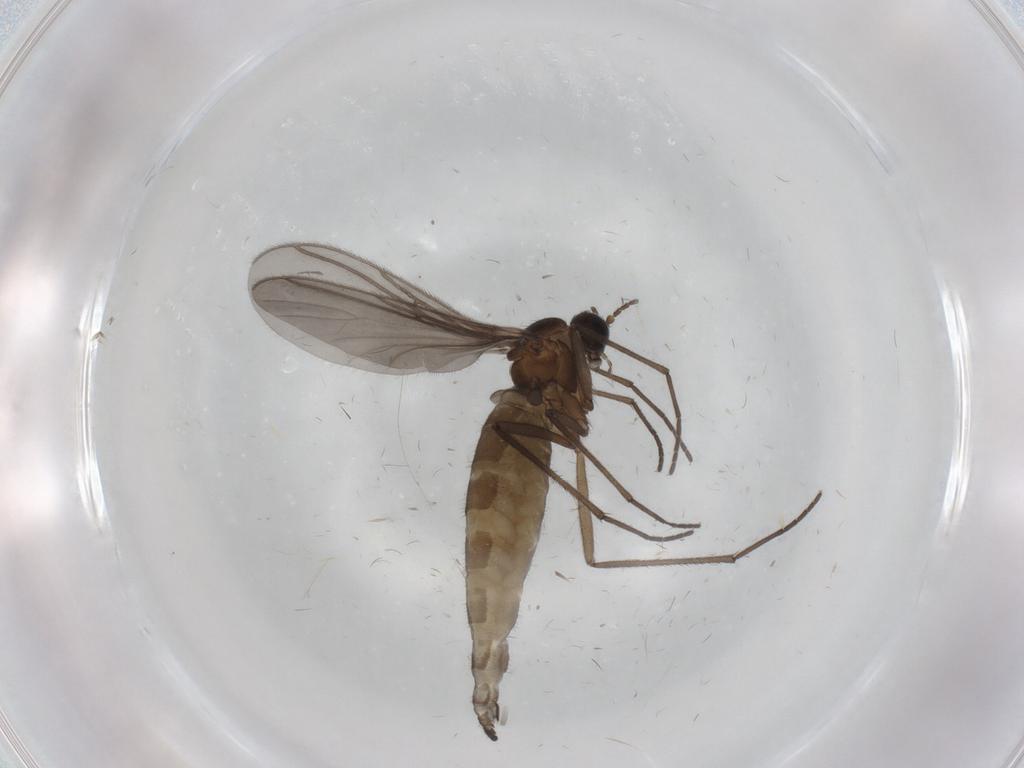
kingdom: Animalia
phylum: Arthropoda
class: Insecta
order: Diptera
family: Sciaridae
